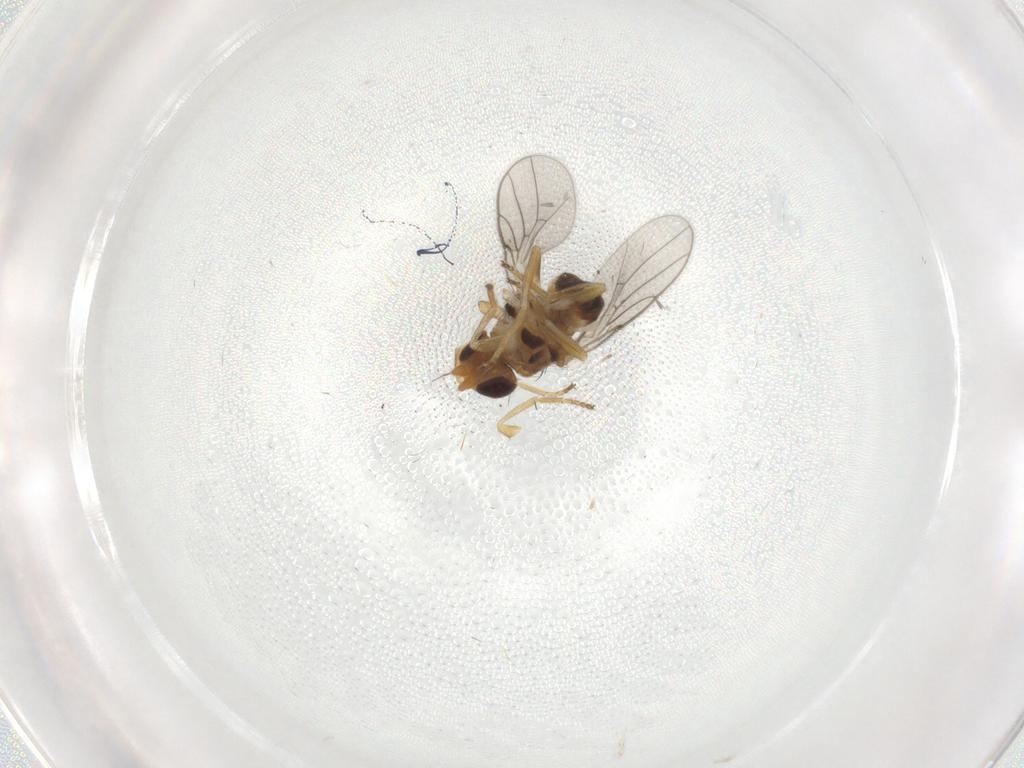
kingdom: Animalia
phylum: Arthropoda
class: Insecta
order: Diptera
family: Chloropidae
